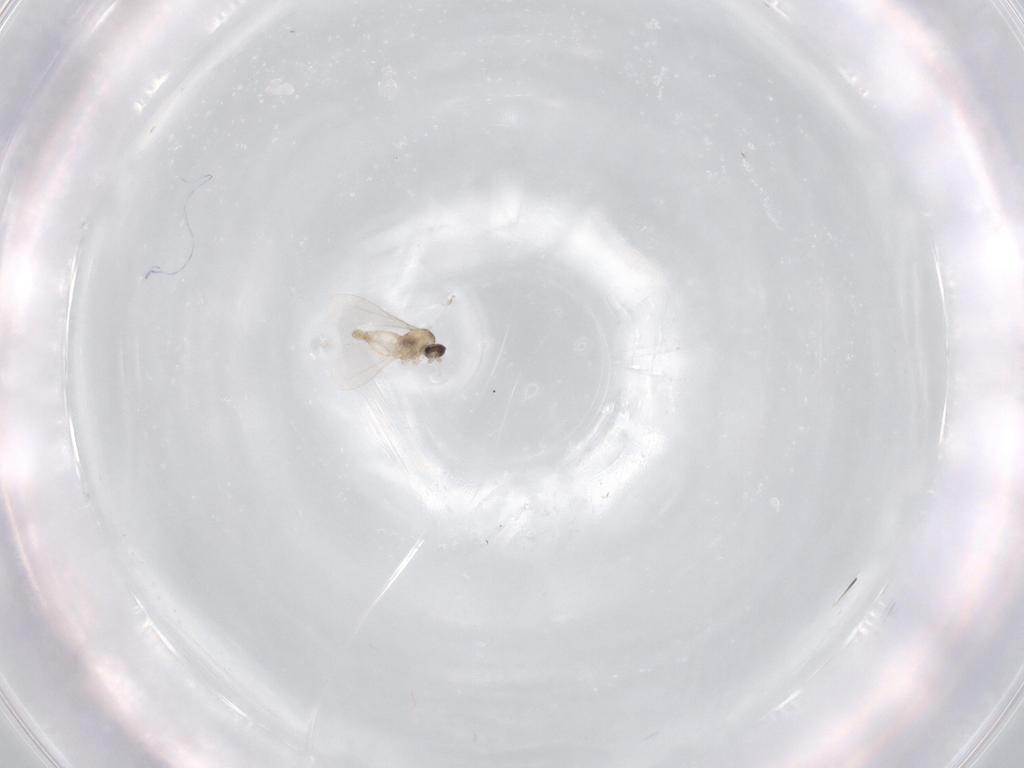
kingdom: Animalia
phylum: Arthropoda
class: Insecta
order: Diptera
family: Cecidomyiidae
